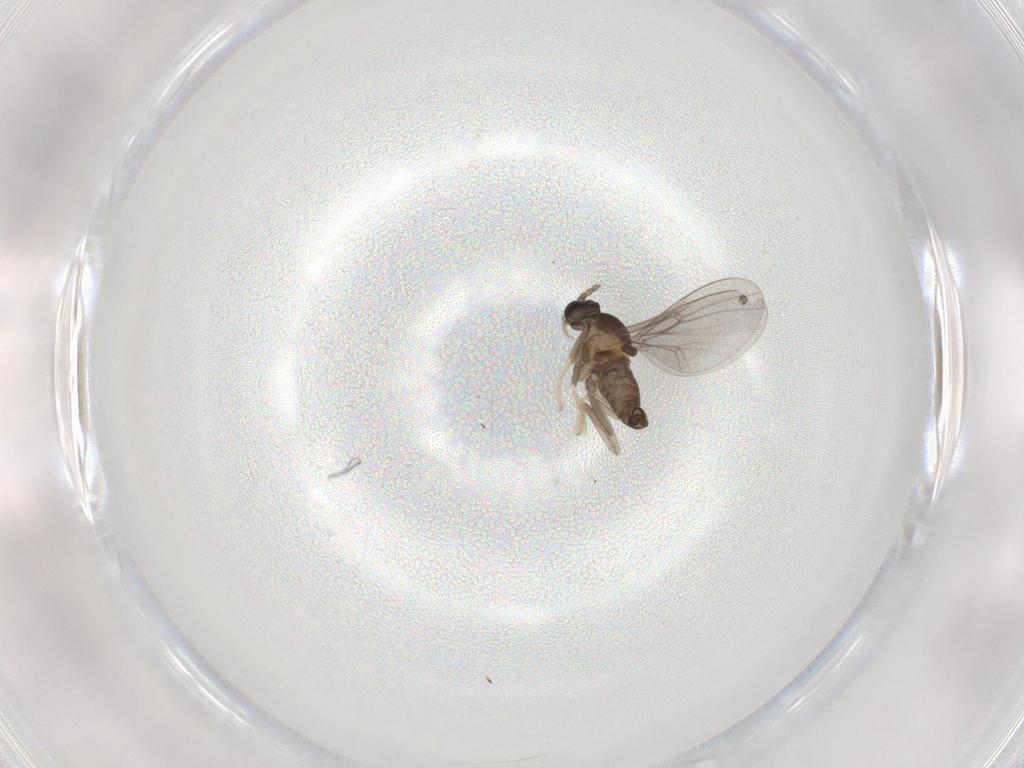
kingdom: Animalia
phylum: Arthropoda
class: Insecta
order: Diptera
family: Cecidomyiidae
